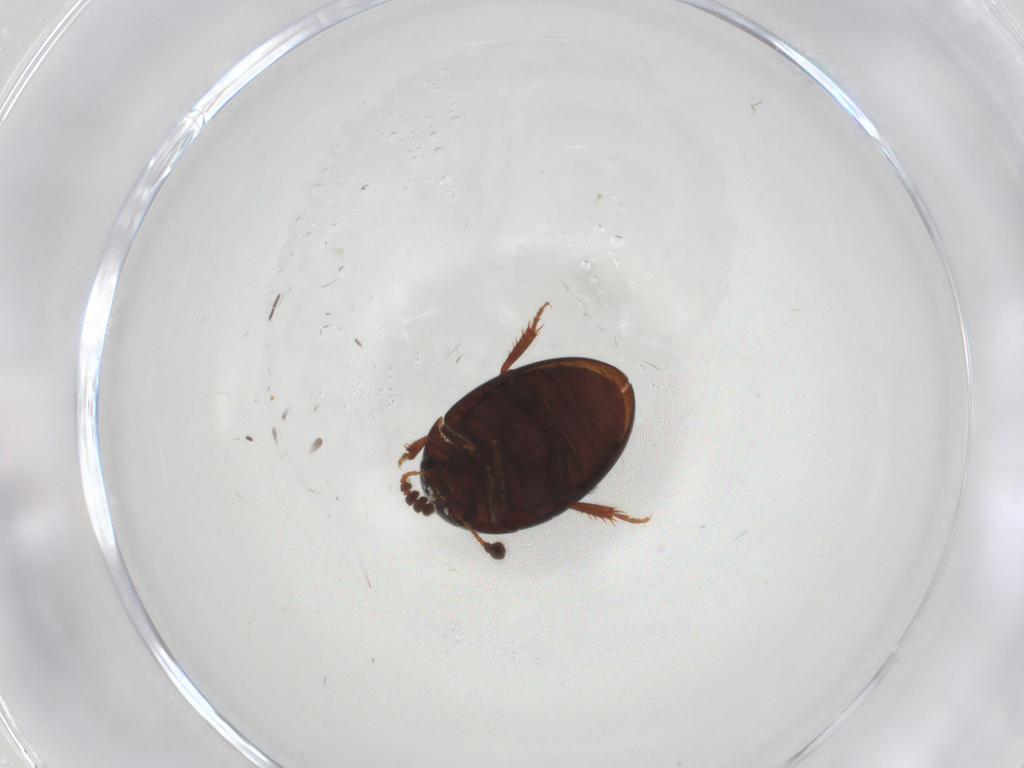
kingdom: Animalia
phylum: Arthropoda
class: Insecta
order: Coleoptera
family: Leiodidae
